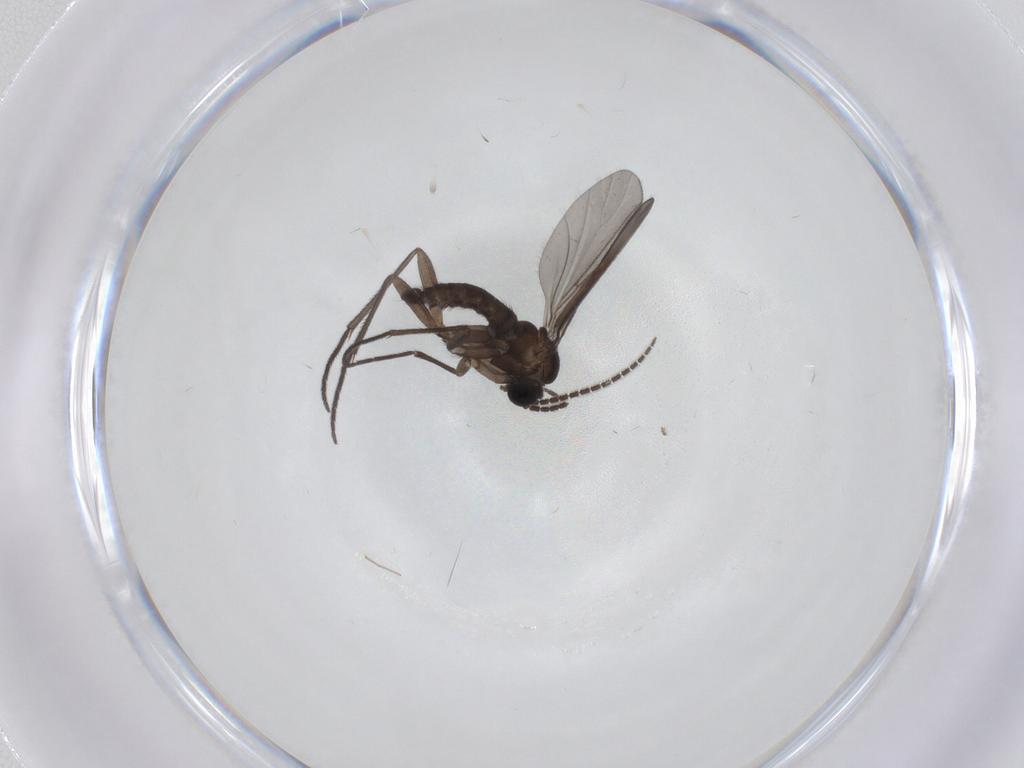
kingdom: Animalia
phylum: Arthropoda
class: Insecta
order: Diptera
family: Sciaridae
